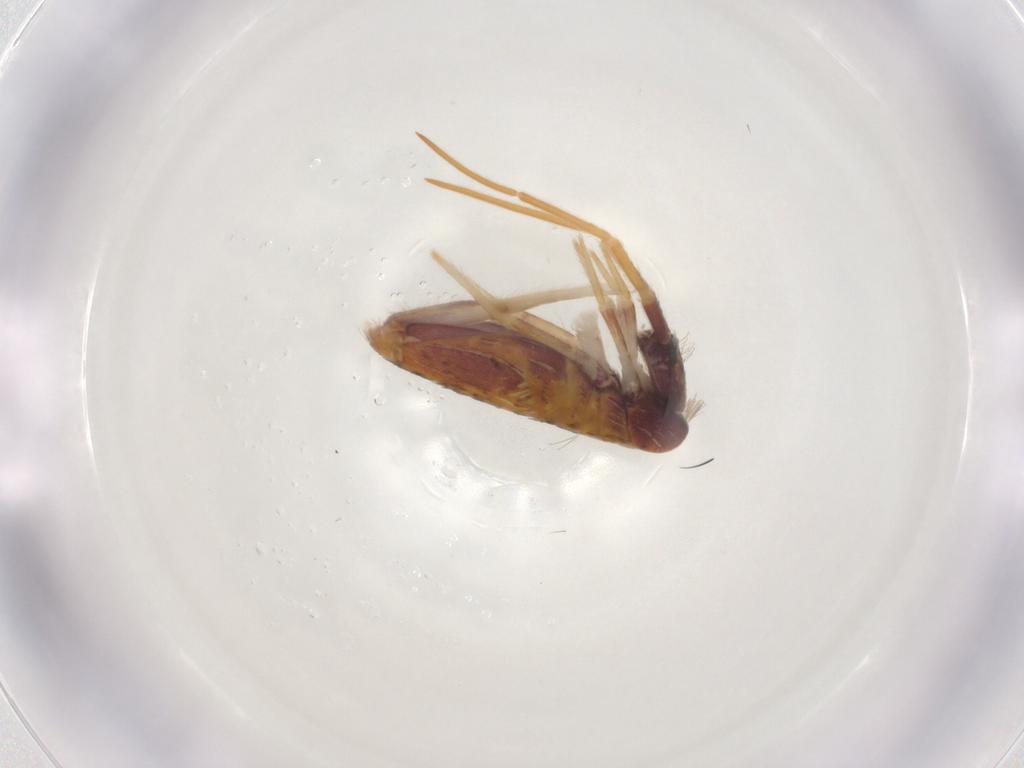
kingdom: Animalia
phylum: Arthropoda
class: Collembola
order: Entomobryomorpha
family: Entomobryidae
